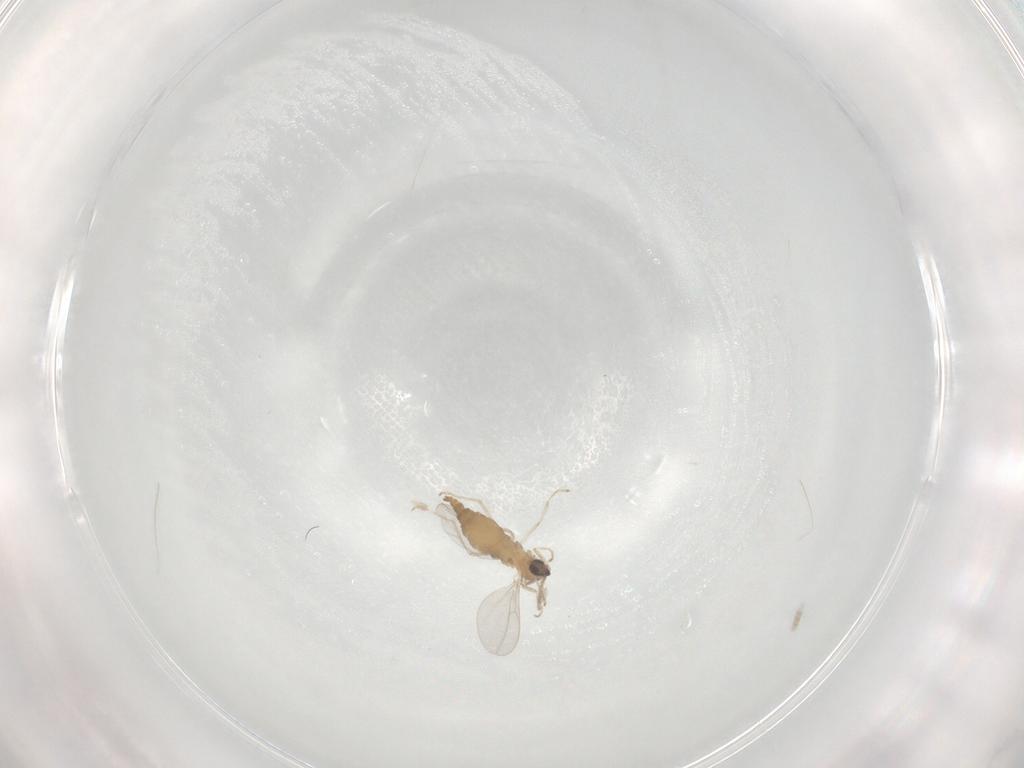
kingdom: Animalia
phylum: Arthropoda
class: Insecta
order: Diptera
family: Cecidomyiidae
